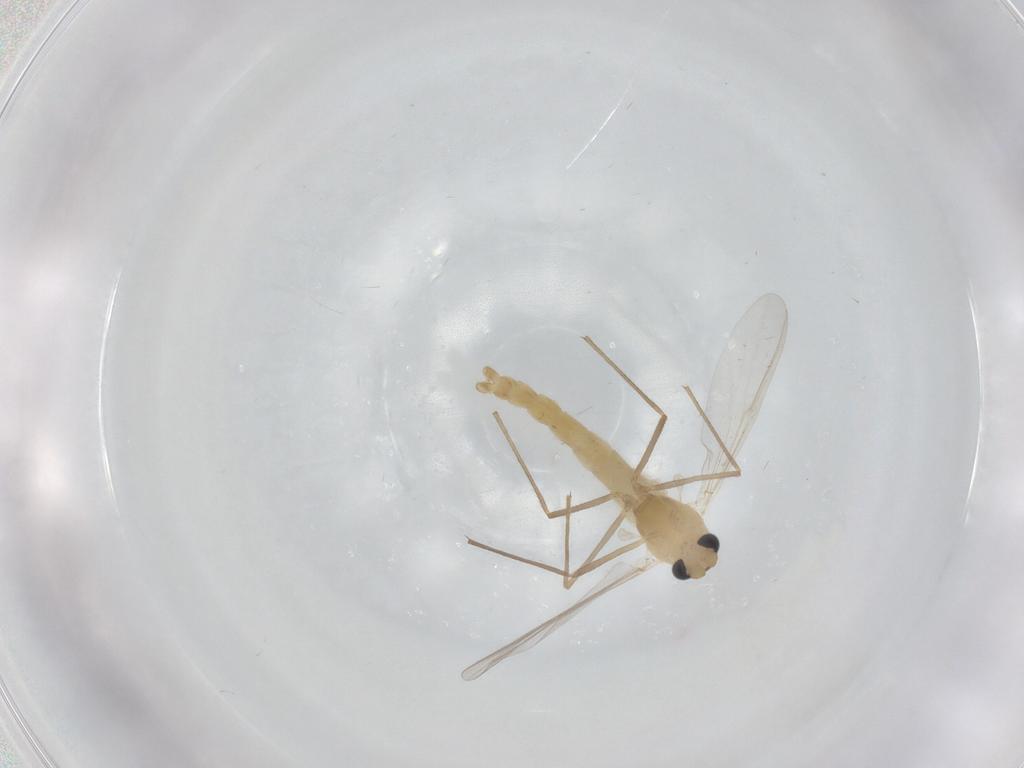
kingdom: Animalia
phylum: Arthropoda
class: Insecta
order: Diptera
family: Chironomidae
